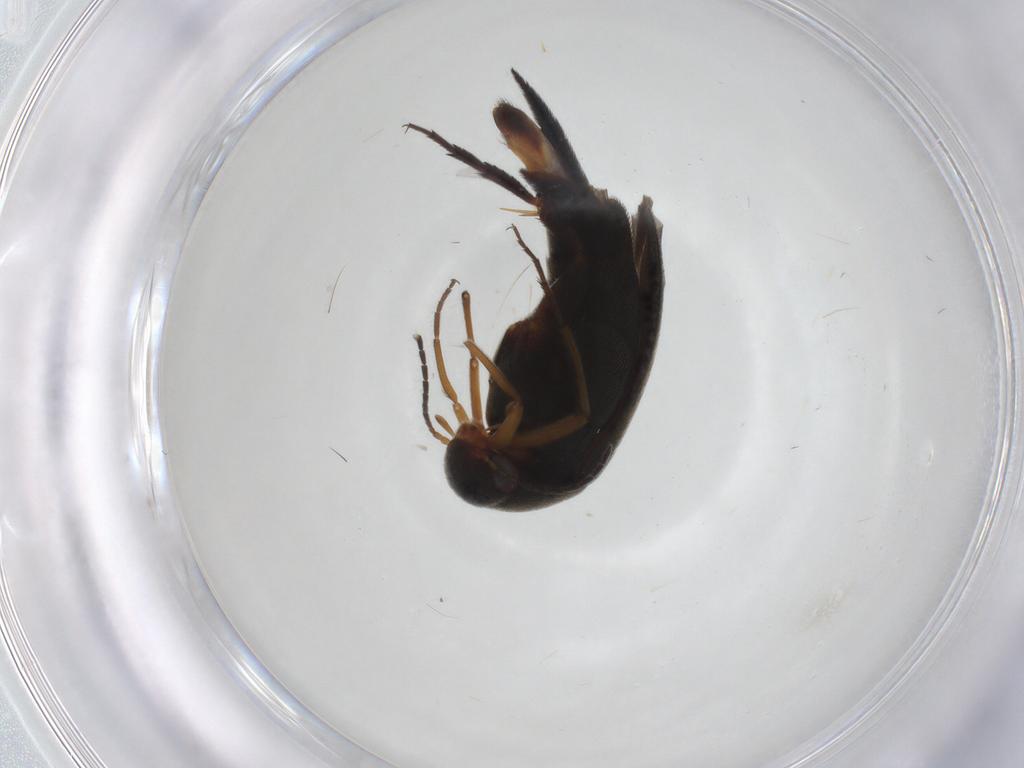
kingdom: Animalia
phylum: Arthropoda
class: Insecta
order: Coleoptera
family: Mordellidae
